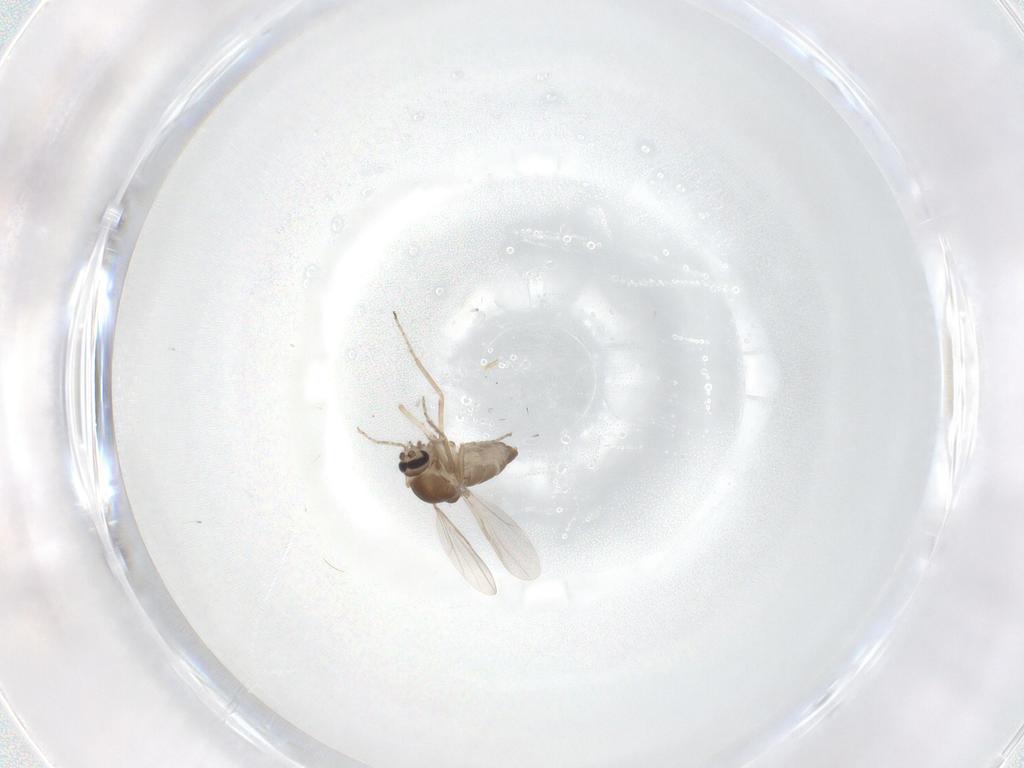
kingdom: Animalia
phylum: Arthropoda
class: Insecta
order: Diptera
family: Ceratopogonidae
